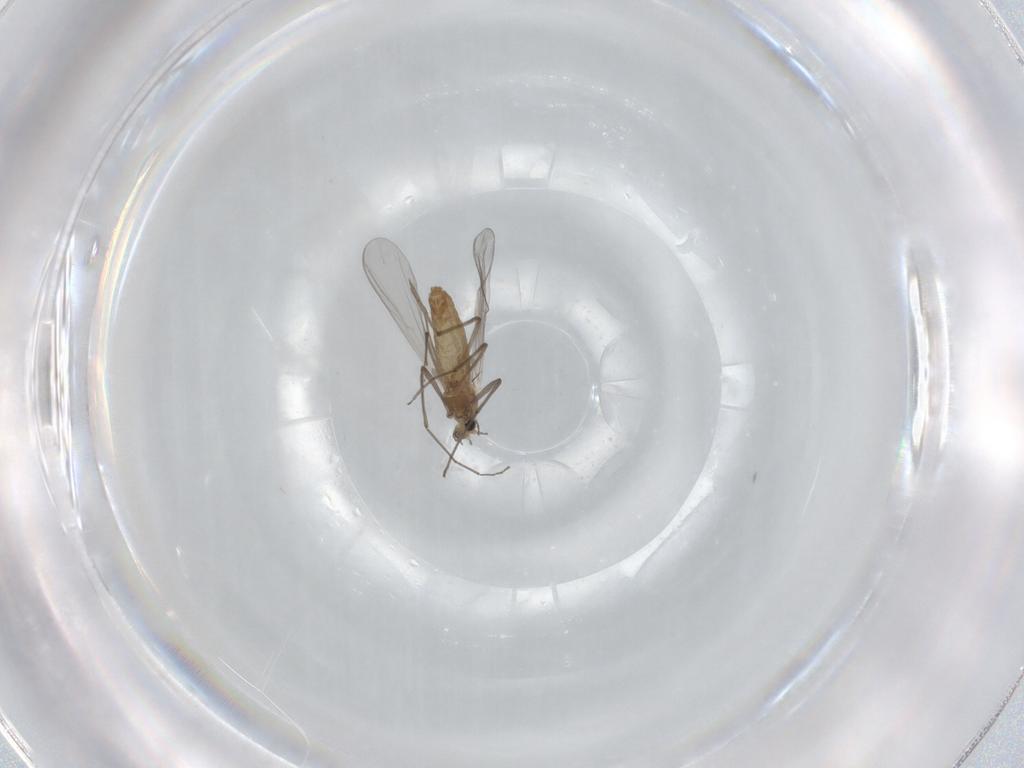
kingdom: Animalia
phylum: Arthropoda
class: Insecta
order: Diptera
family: Chironomidae
